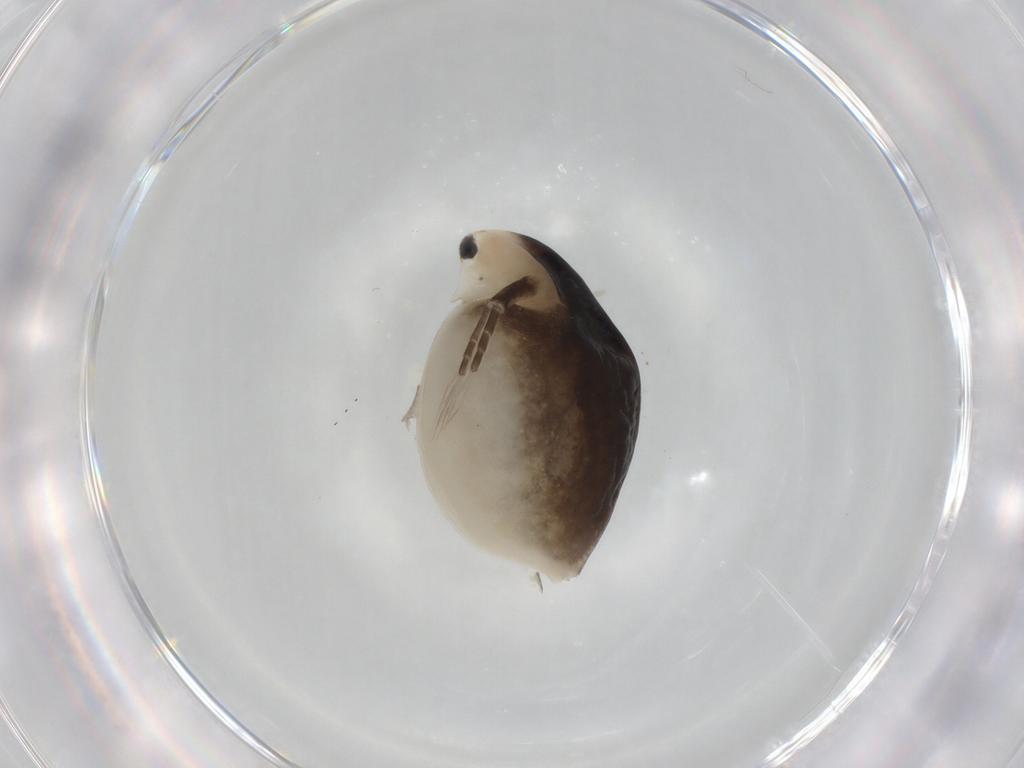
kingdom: Animalia
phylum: Arthropoda
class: Branchiopoda
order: Diplostraca
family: Daphniidae
